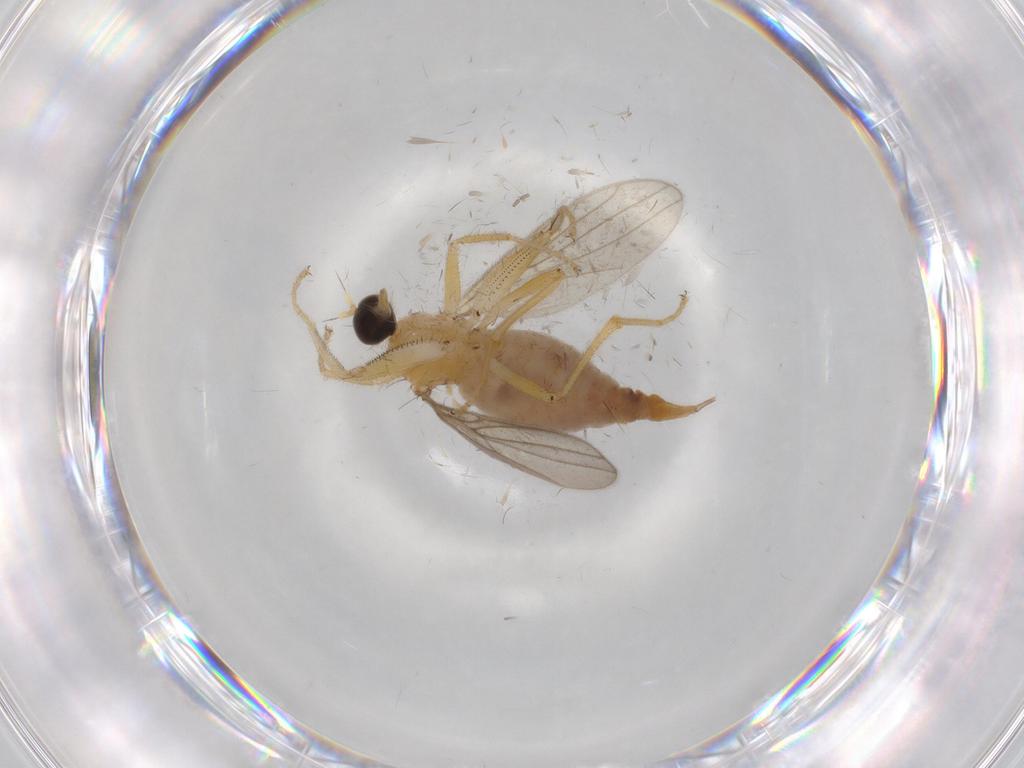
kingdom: Animalia
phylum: Arthropoda
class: Insecta
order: Diptera
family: Hybotidae
